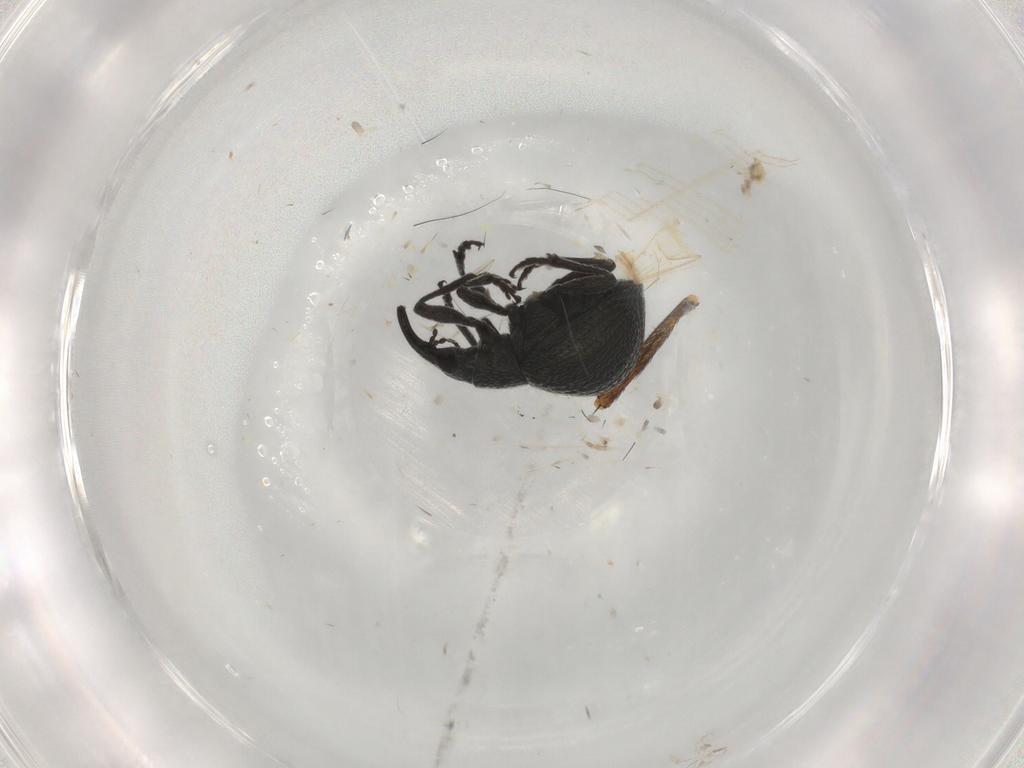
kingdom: Animalia
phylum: Arthropoda
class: Insecta
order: Coleoptera
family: Brentidae
